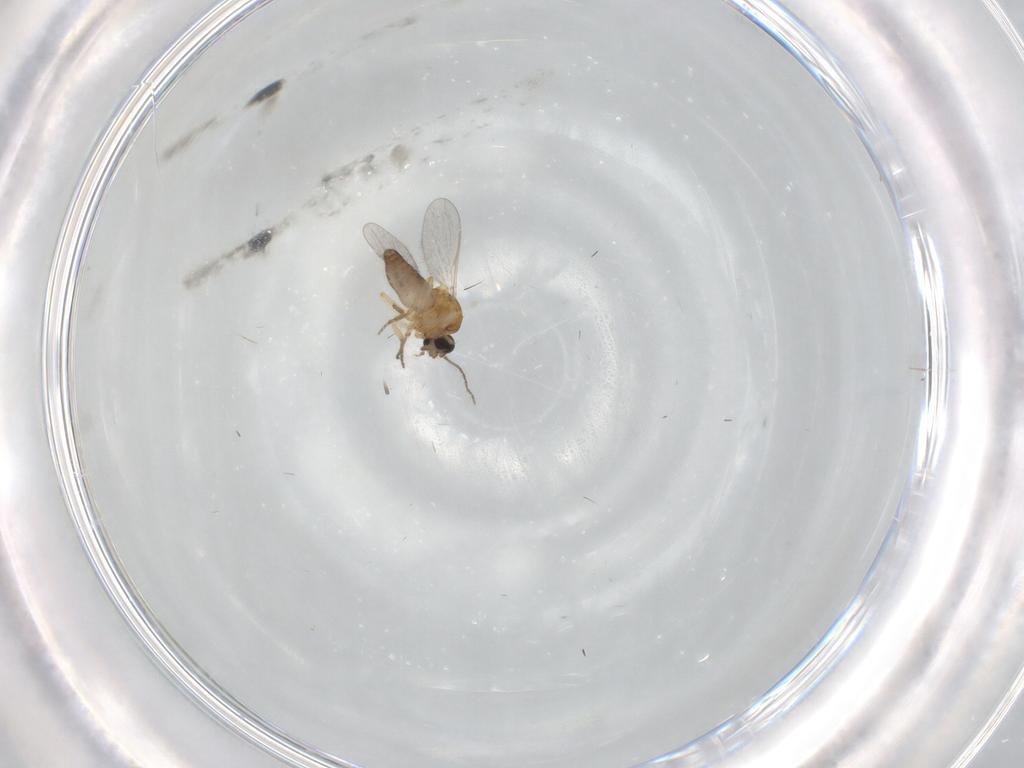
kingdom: Animalia
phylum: Arthropoda
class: Insecta
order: Diptera
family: Ceratopogonidae
